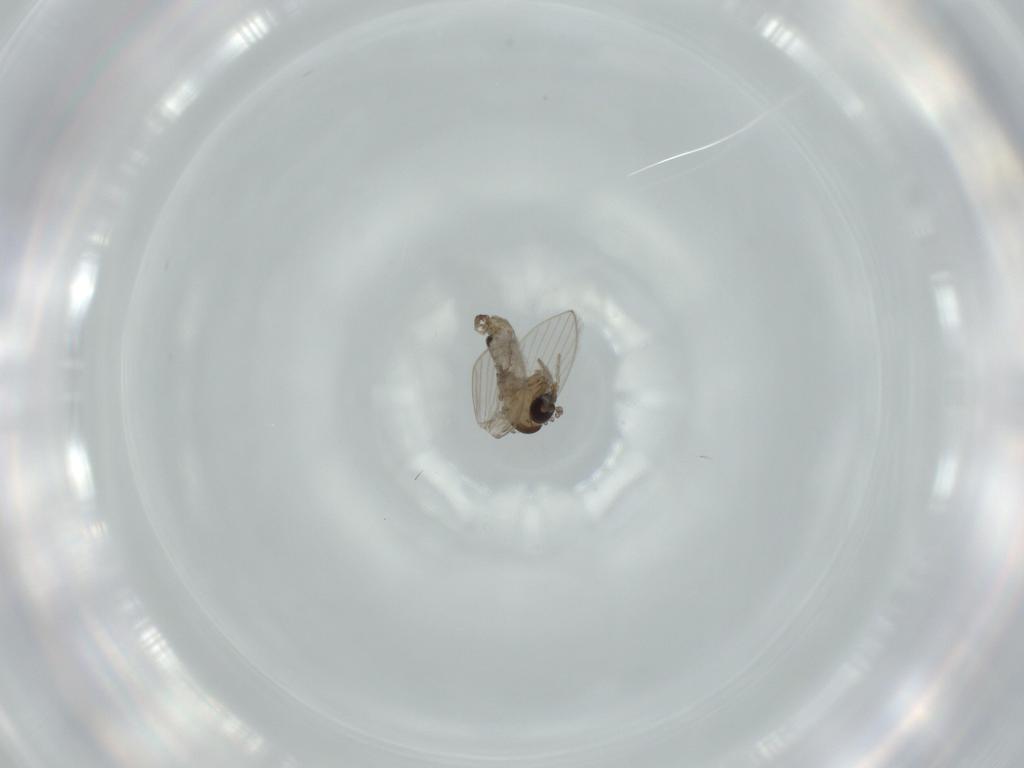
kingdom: Animalia
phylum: Arthropoda
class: Insecta
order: Diptera
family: Psychodidae
